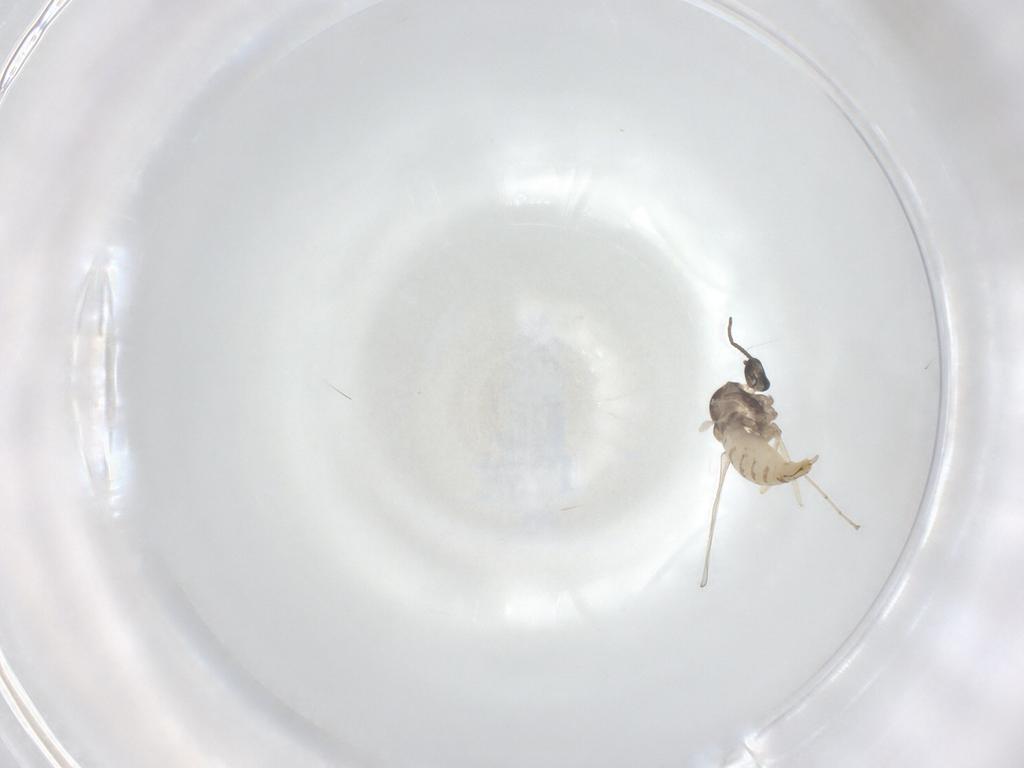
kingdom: Animalia
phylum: Arthropoda
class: Insecta
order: Diptera
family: Cecidomyiidae
